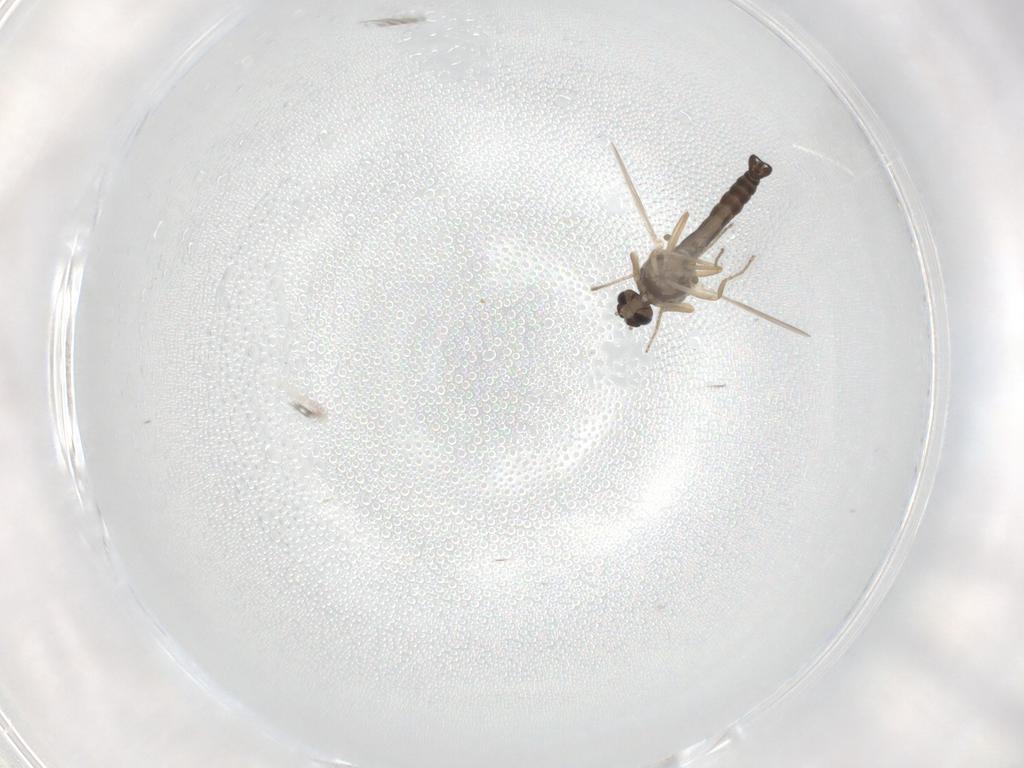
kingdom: Animalia
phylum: Arthropoda
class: Insecta
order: Diptera
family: Ceratopogonidae
